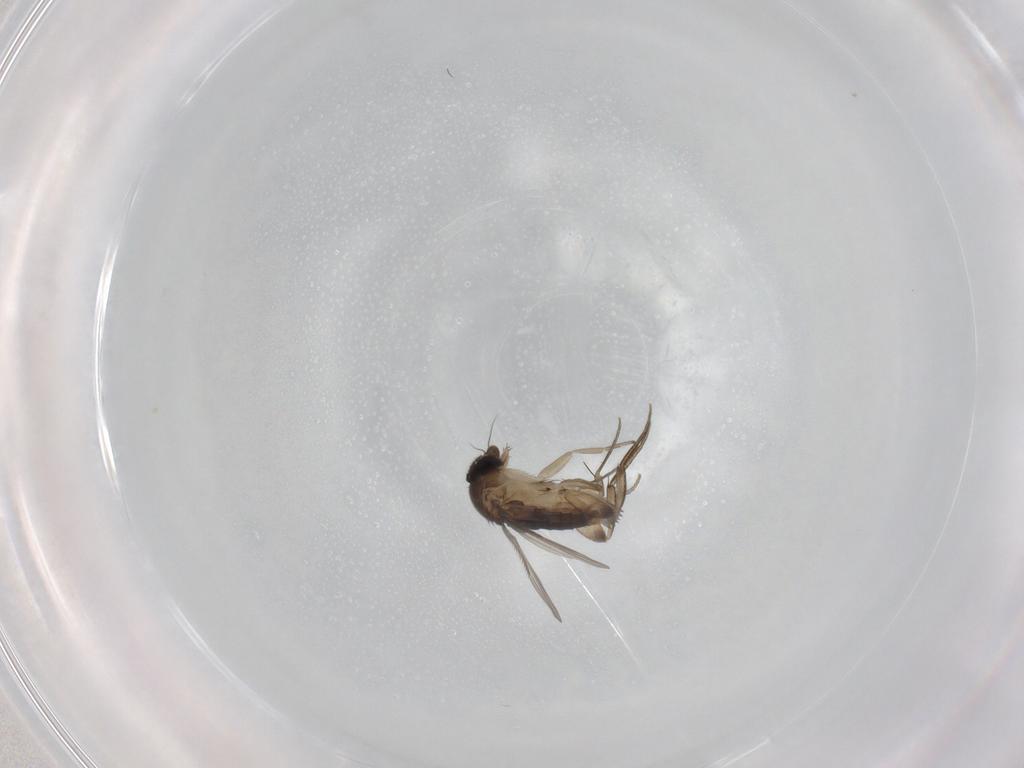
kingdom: Animalia
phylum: Arthropoda
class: Insecta
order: Diptera
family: Phoridae
